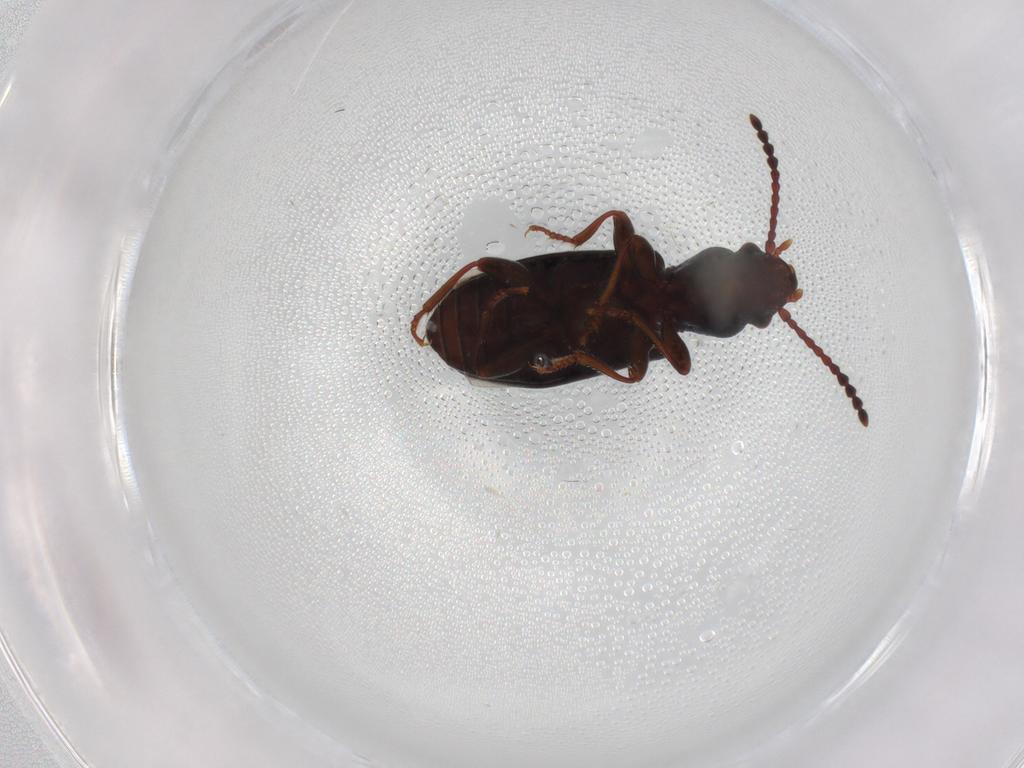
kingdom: Animalia
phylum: Arthropoda
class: Insecta
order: Coleoptera
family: Salpingidae
